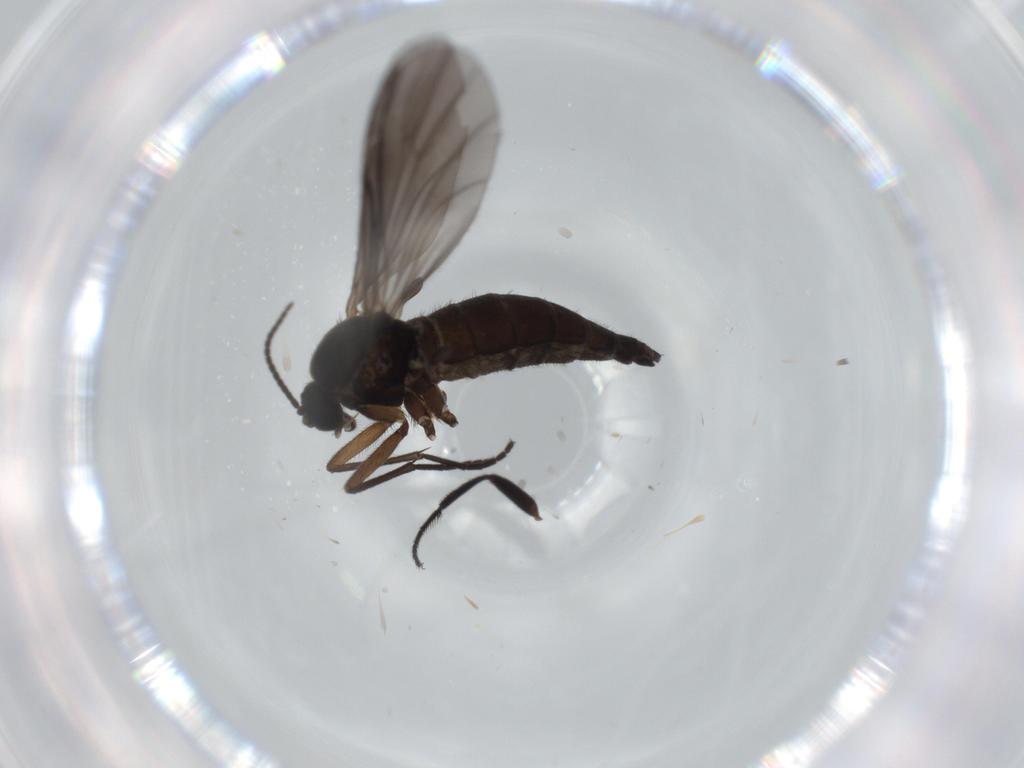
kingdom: Animalia
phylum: Arthropoda
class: Insecta
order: Diptera
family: Sciaridae
